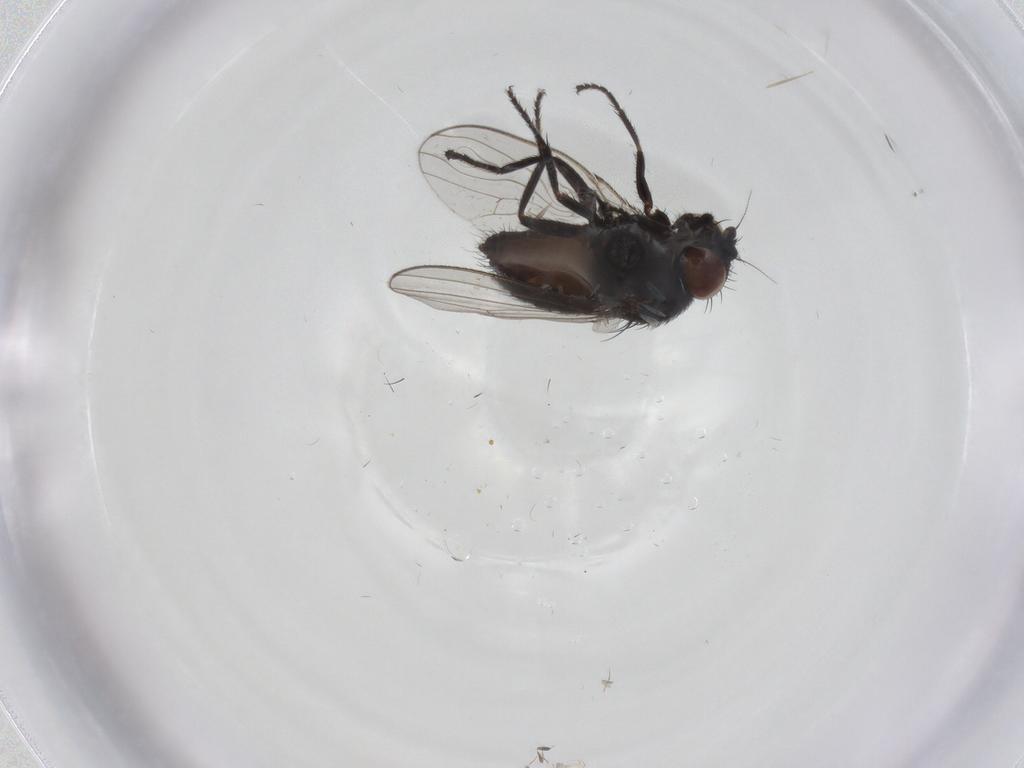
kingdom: Animalia
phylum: Arthropoda
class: Insecta
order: Diptera
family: Milichiidae
